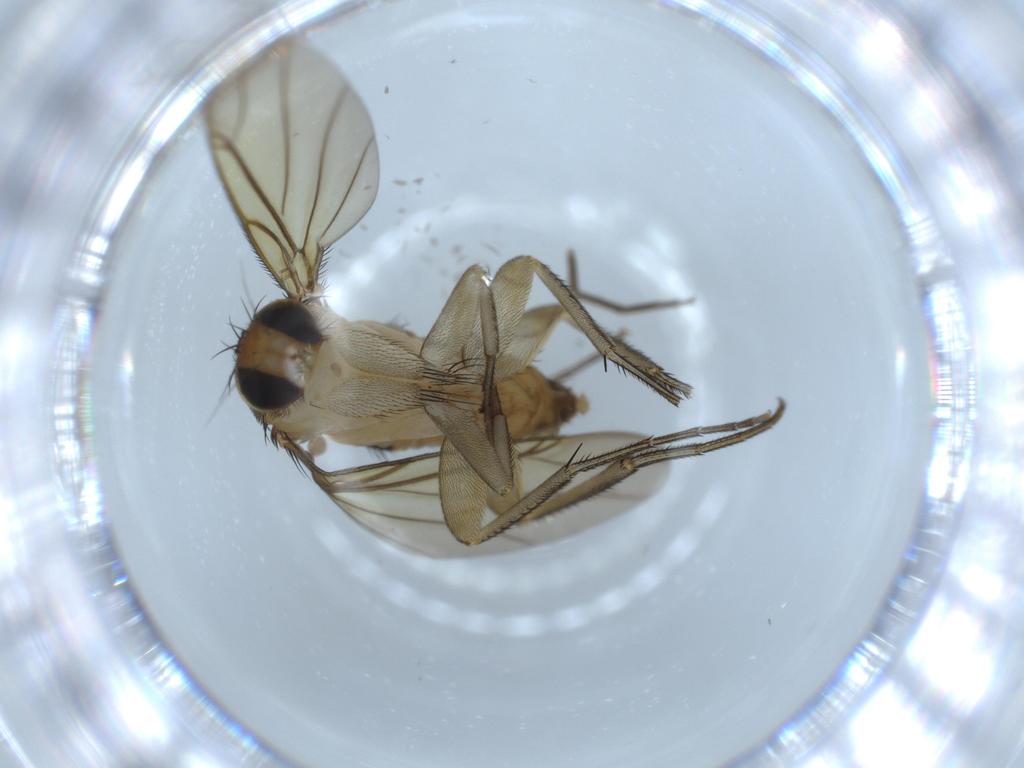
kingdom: Animalia
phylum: Arthropoda
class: Insecta
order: Diptera
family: Phoridae
